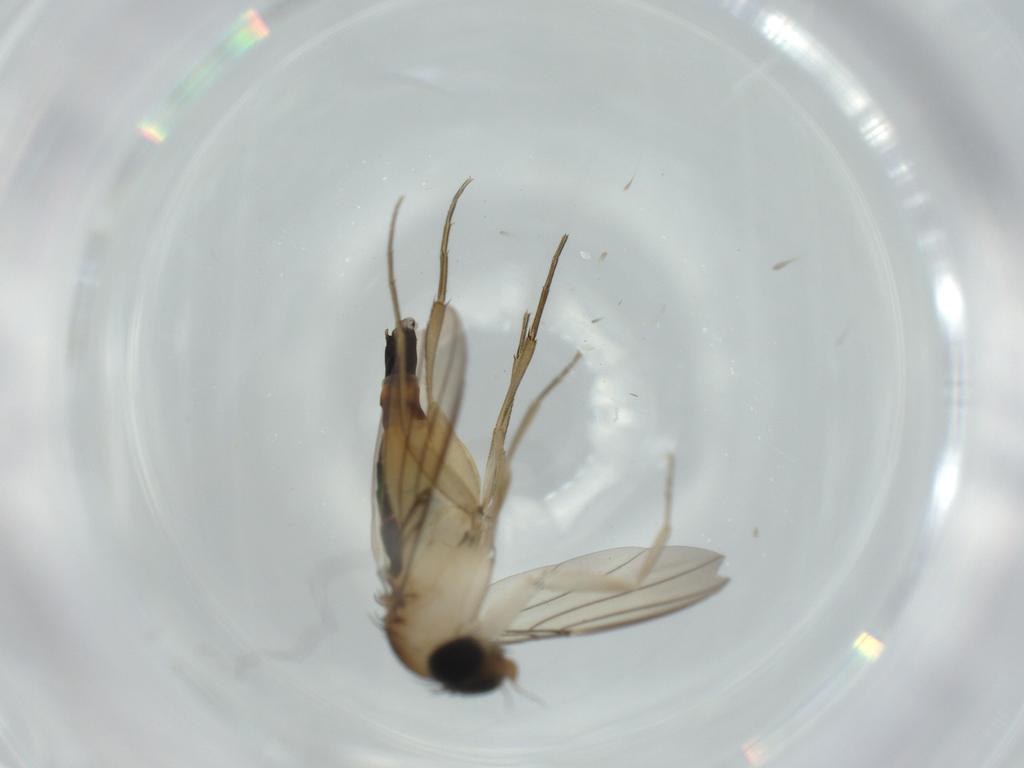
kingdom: Animalia
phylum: Arthropoda
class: Insecta
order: Diptera
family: Phoridae
